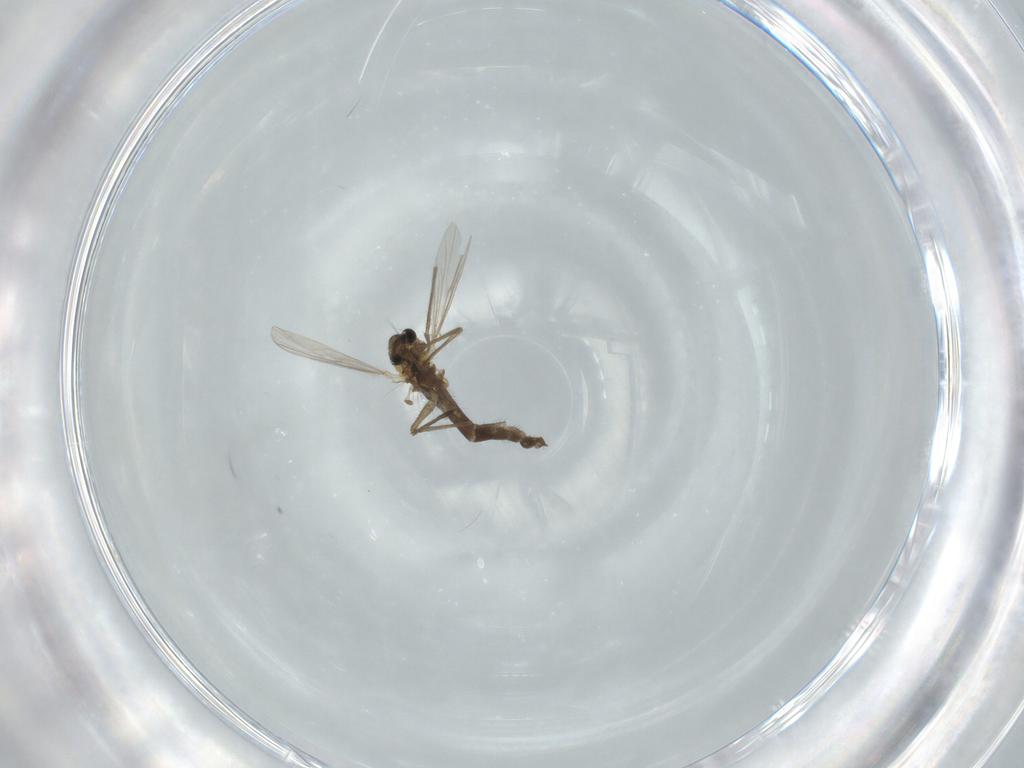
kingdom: Animalia
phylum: Arthropoda
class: Insecta
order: Diptera
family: Chironomidae
